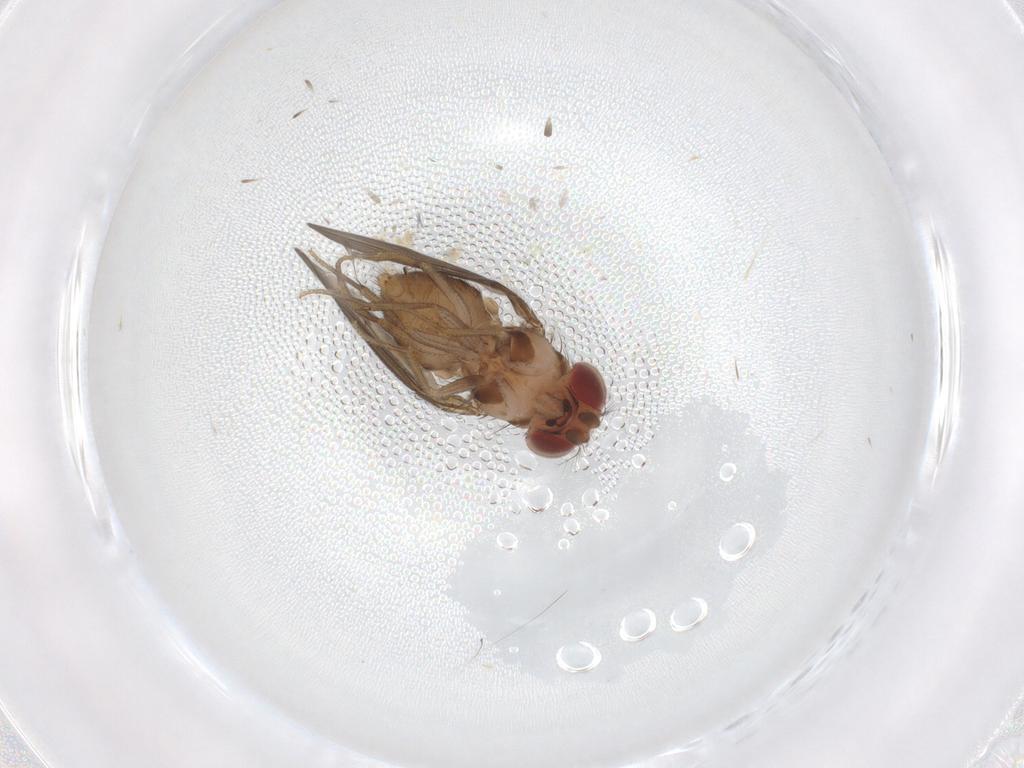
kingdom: Animalia
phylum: Arthropoda
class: Insecta
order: Diptera
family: Drosophilidae
